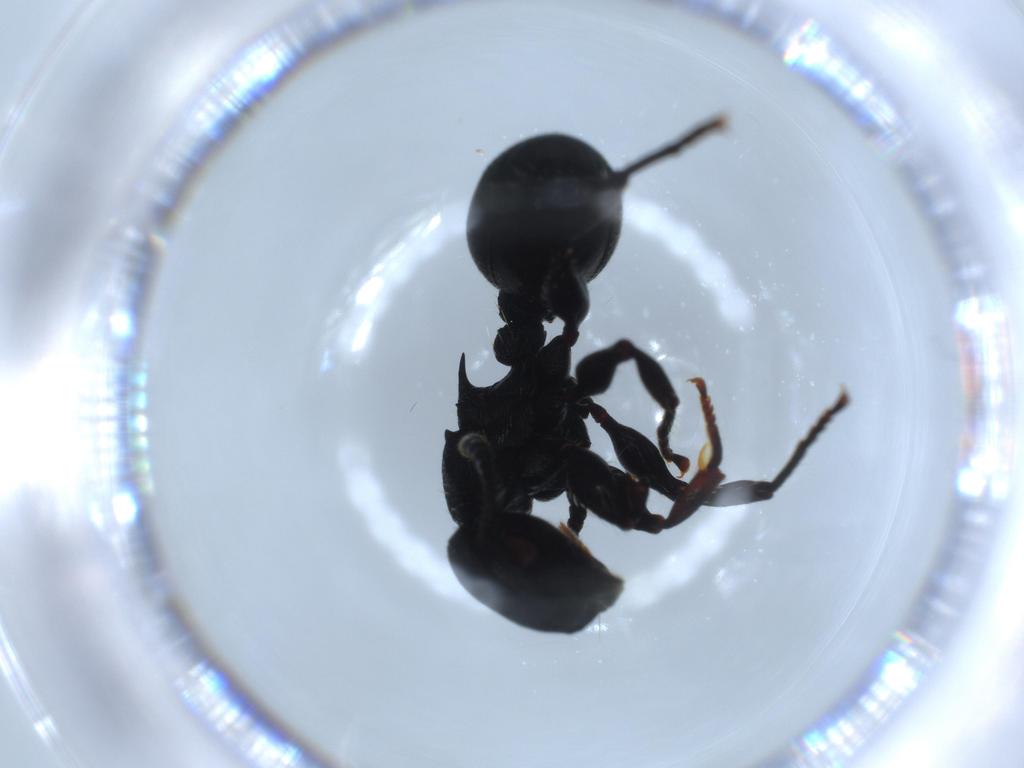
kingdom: Animalia
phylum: Arthropoda
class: Insecta
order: Hymenoptera
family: Formicidae
